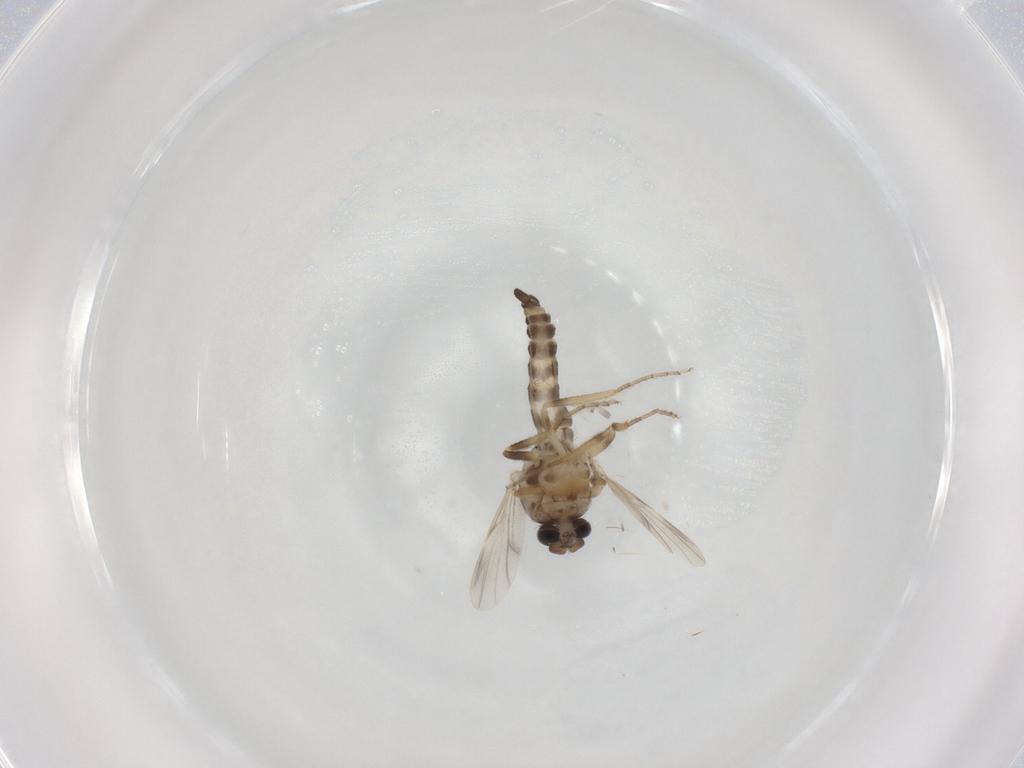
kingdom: Animalia
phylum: Arthropoda
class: Insecta
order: Diptera
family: Ceratopogonidae
